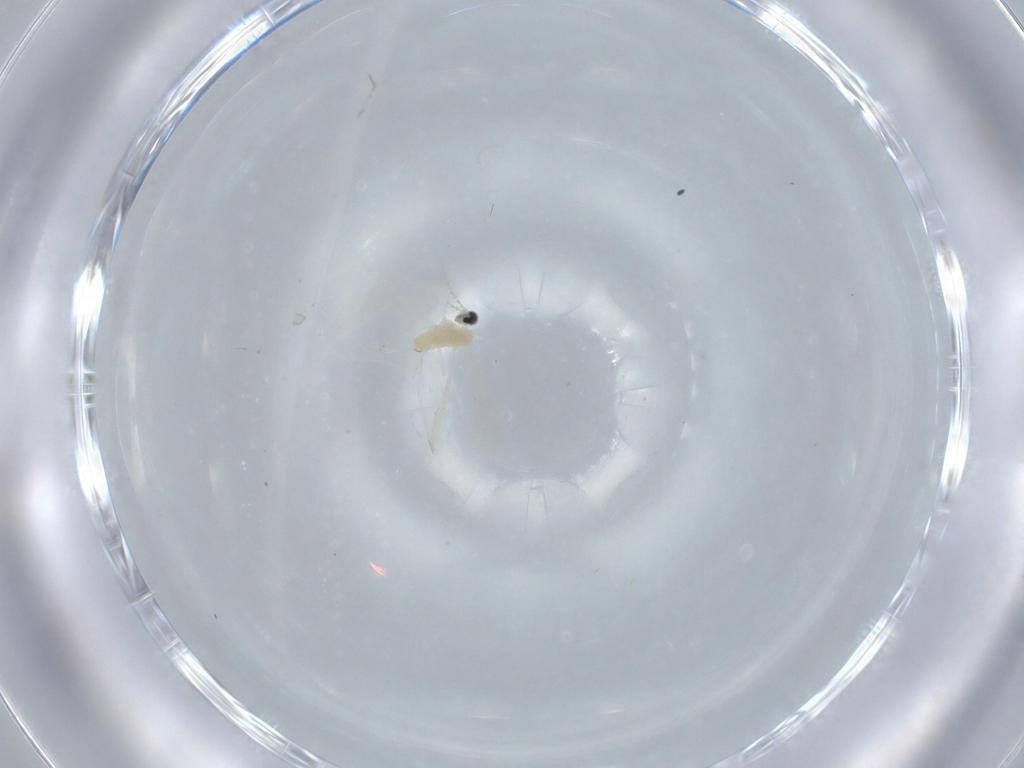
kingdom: Animalia
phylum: Arthropoda
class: Insecta
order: Diptera
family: Cecidomyiidae
